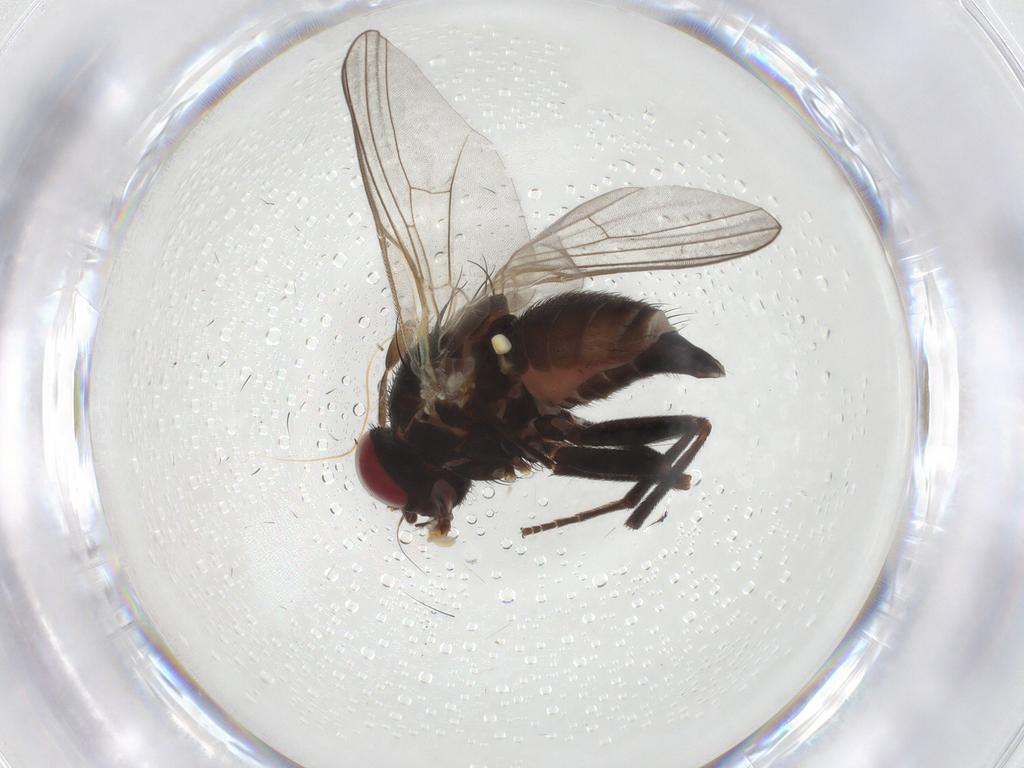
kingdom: Animalia
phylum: Arthropoda
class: Insecta
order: Diptera
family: Agromyzidae
